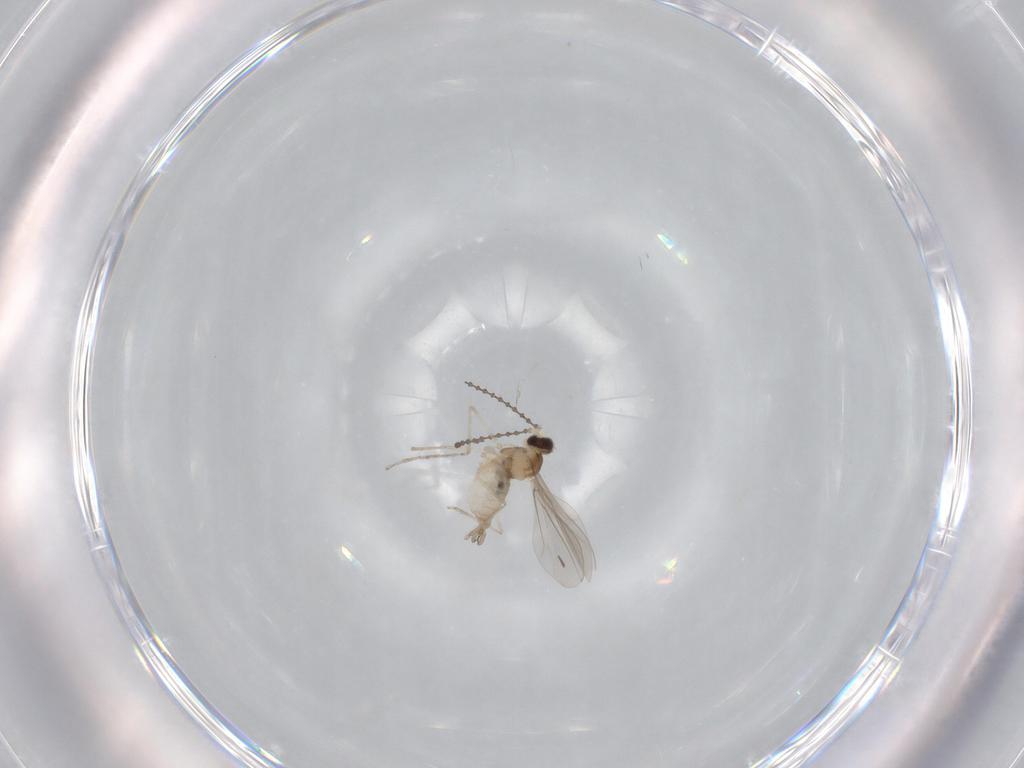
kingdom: Animalia
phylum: Arthropoda
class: Insecta
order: Diptera
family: Cecidomyiidae
